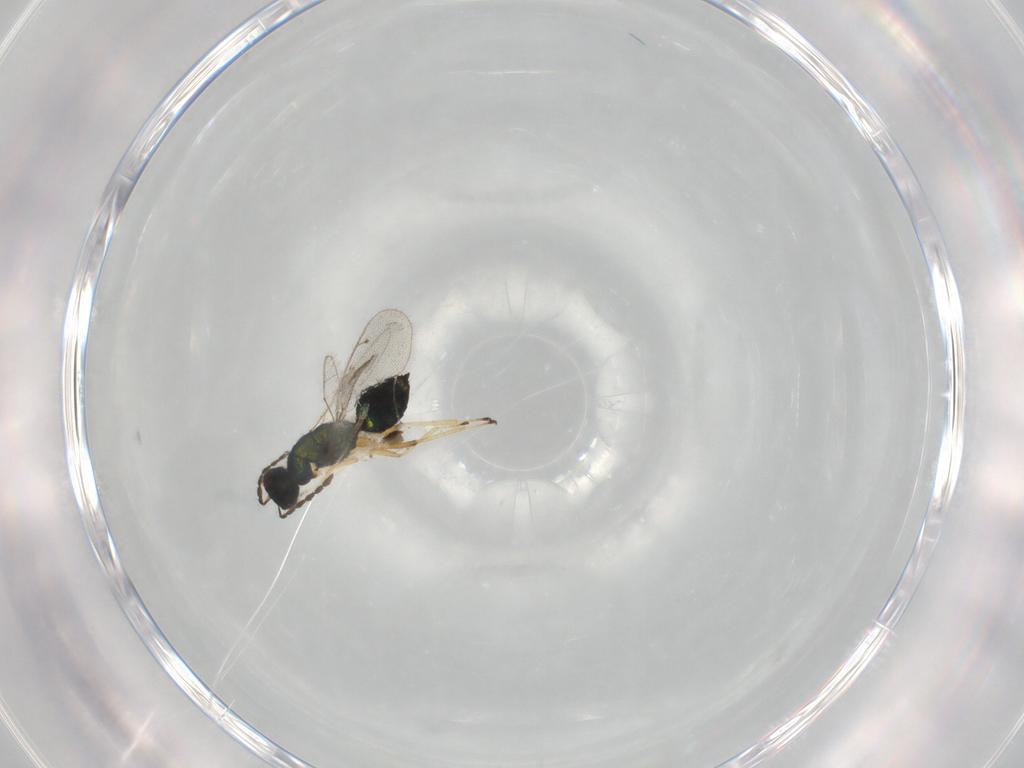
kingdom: Animalia
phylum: Arthropoda
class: Insecta
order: Hymenoptera
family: Eulophidae
